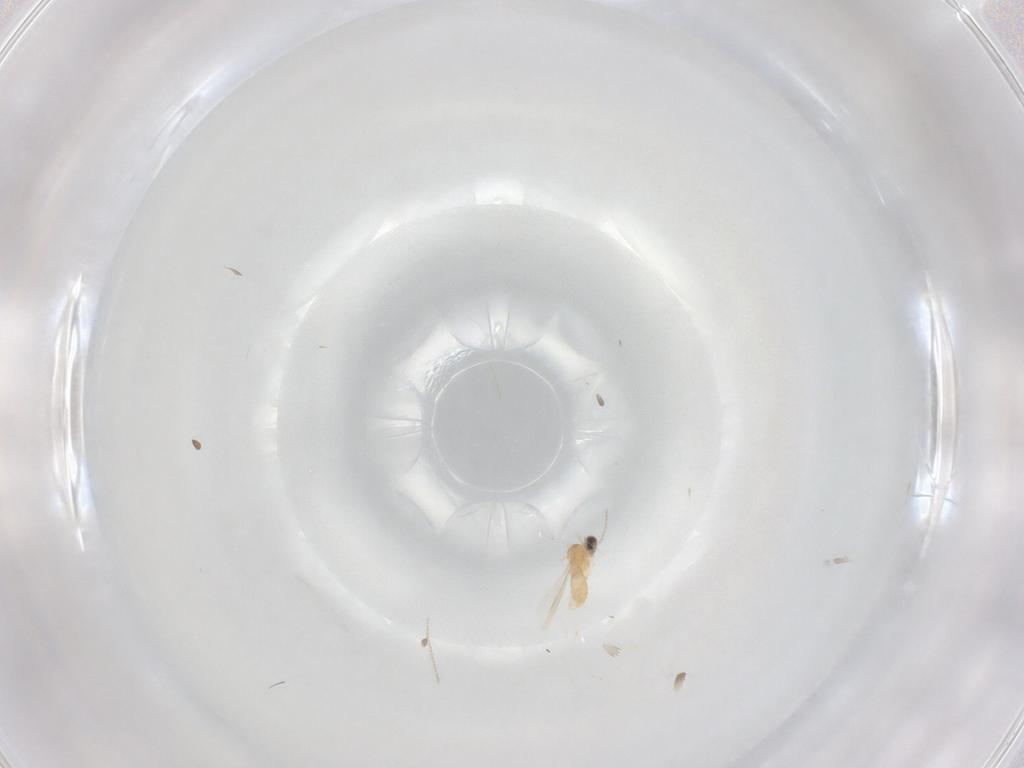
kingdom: Animalia
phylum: Arthropoda
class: Insecta
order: Diptera
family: Cecidomyiidae
